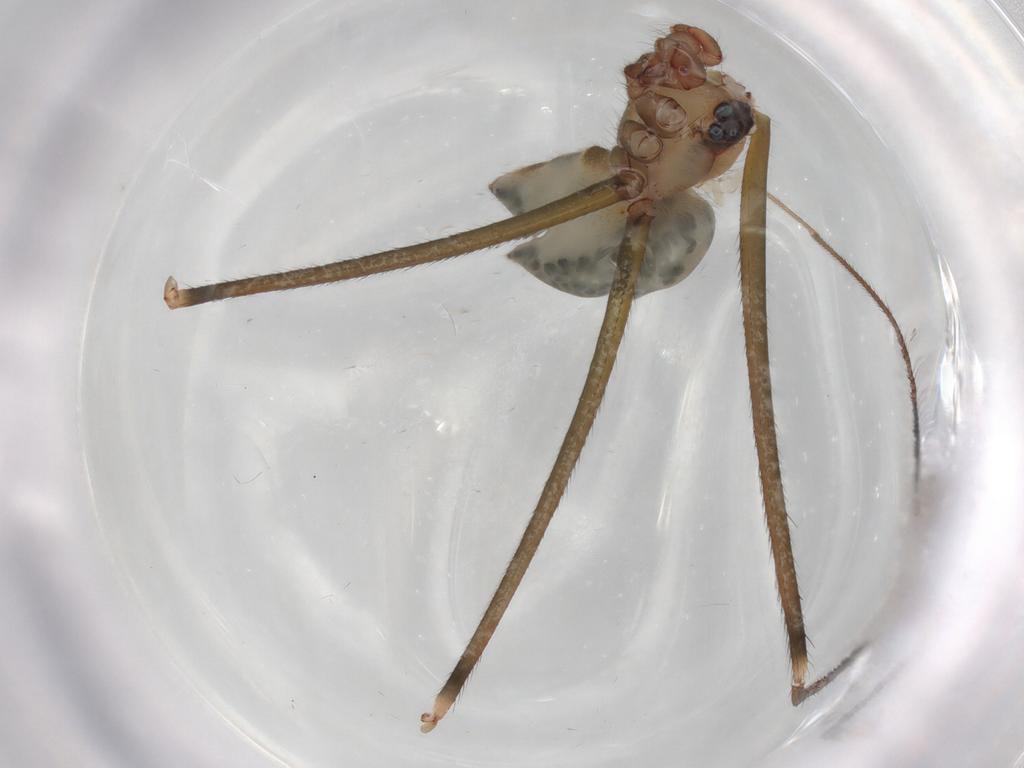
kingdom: Animalia
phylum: Arthropoda
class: Arachnida
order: Araneae
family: Pholcidae
